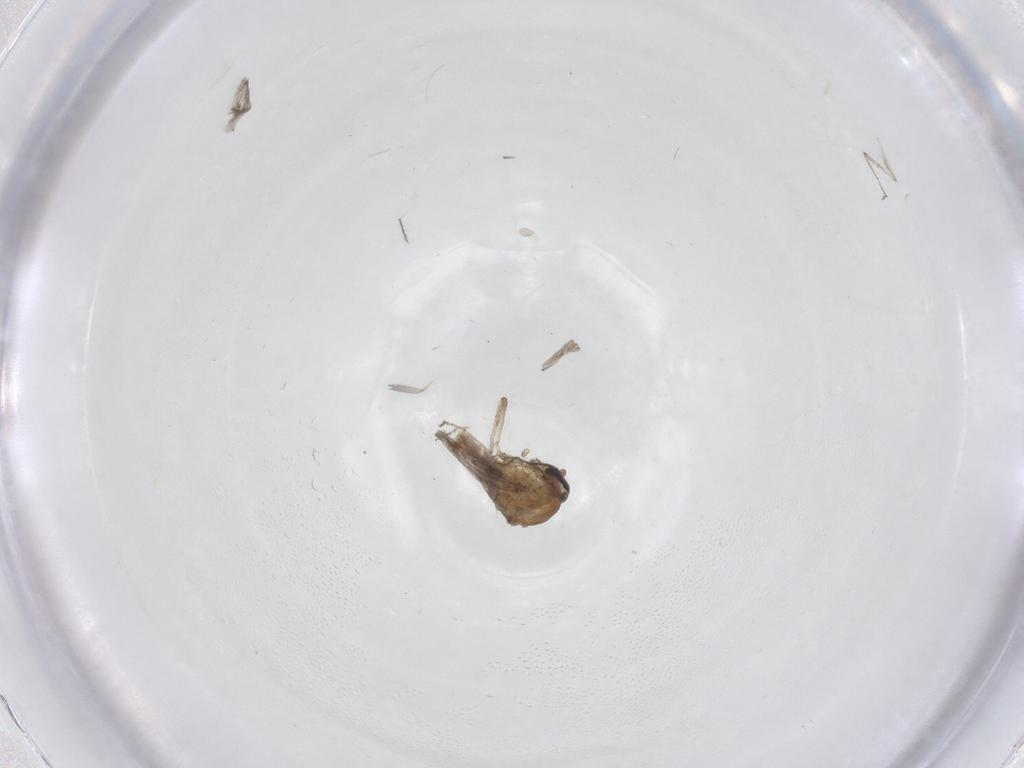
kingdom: Animalia
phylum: Arthropoda
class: Insecta
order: Diptera
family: Ceratopogonidae
